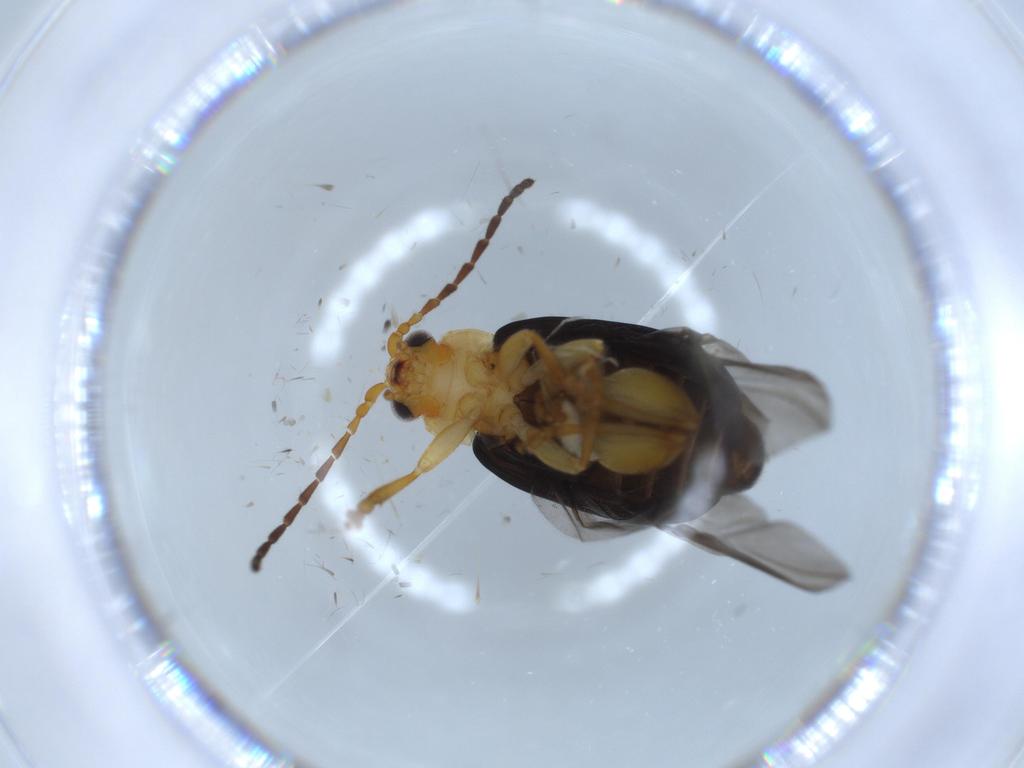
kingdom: Animalia
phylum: Arthropoda
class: Insecta
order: Coleoptera
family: Chrysomelidae
